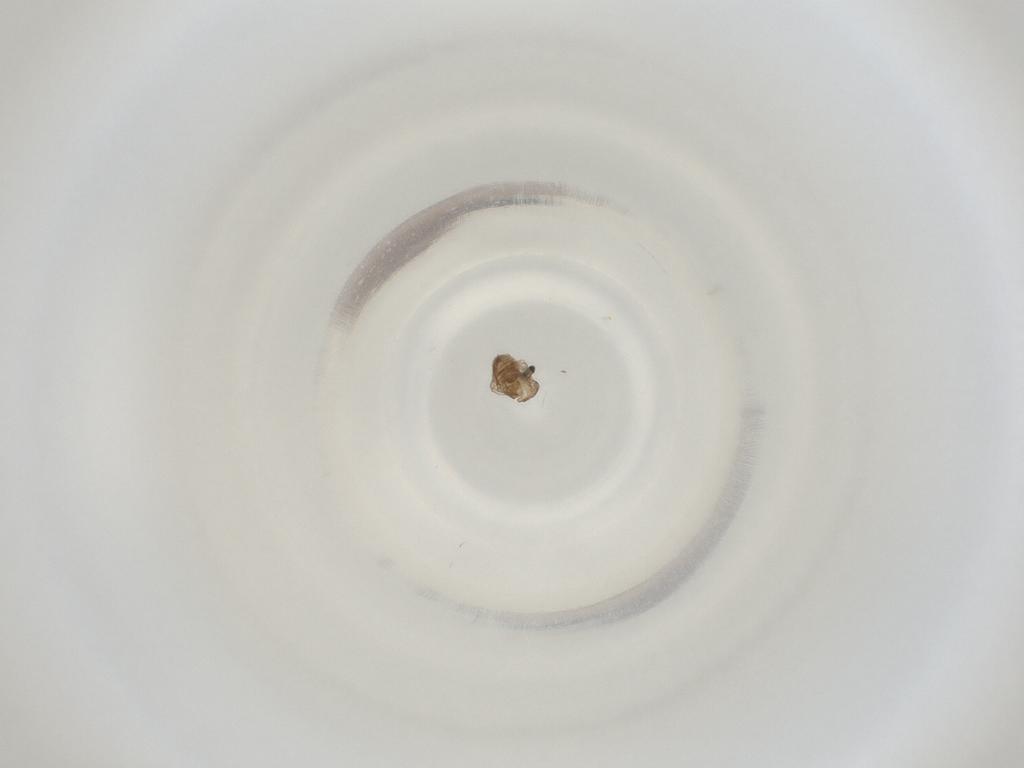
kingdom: Animalia
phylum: Arthropoda
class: Insecta
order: Diptera
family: Cecidomyiidae
